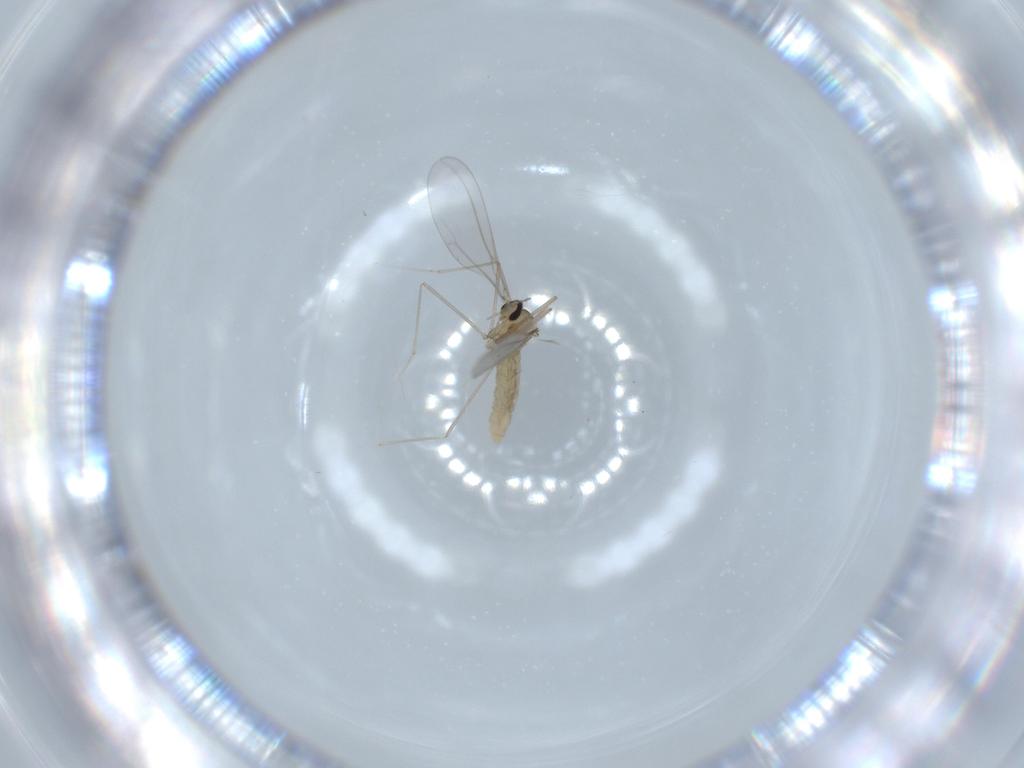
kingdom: Animalia
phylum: Arthropoda
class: Insecta
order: Diptera
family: Cecidomyiidae
